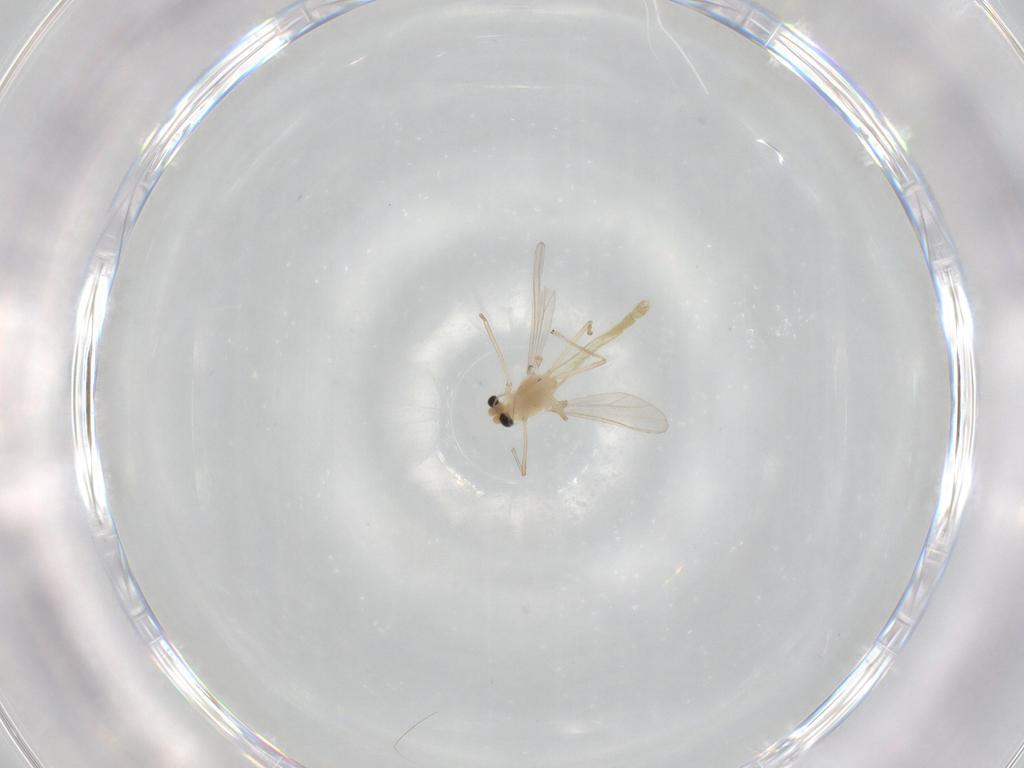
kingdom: Animalia
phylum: Arthropoda
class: Insecta
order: Diptera
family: Chironomidae
